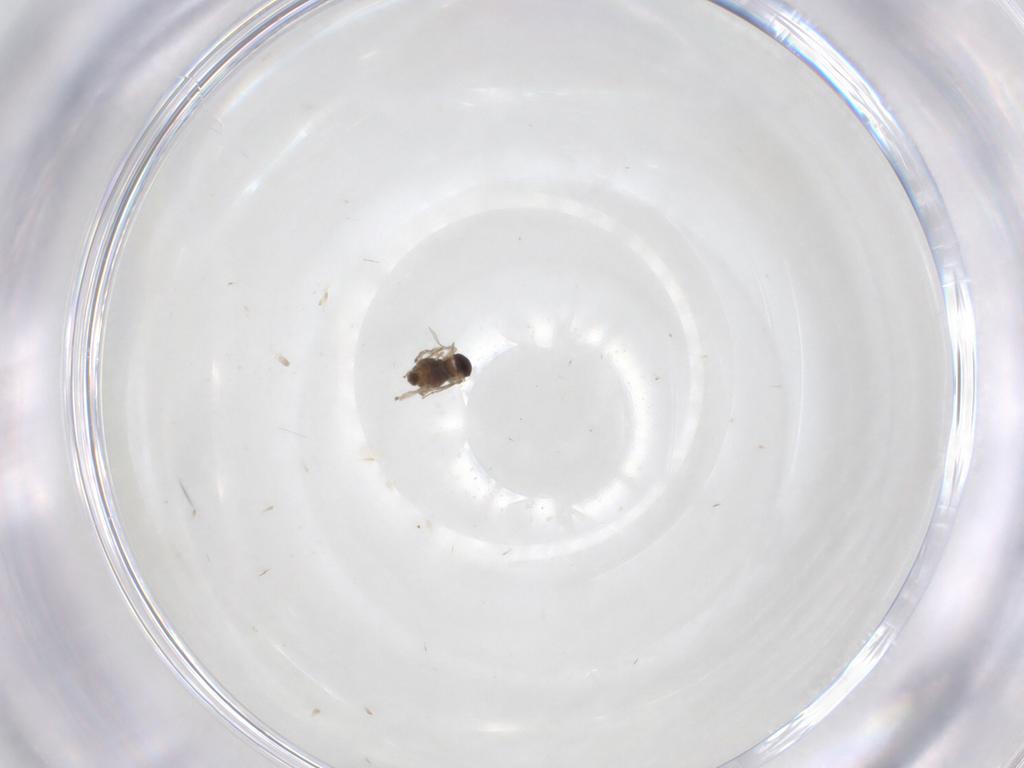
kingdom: Animalia
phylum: Arthropoda
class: Insecta
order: Diptera
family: Cecidomyiidae
